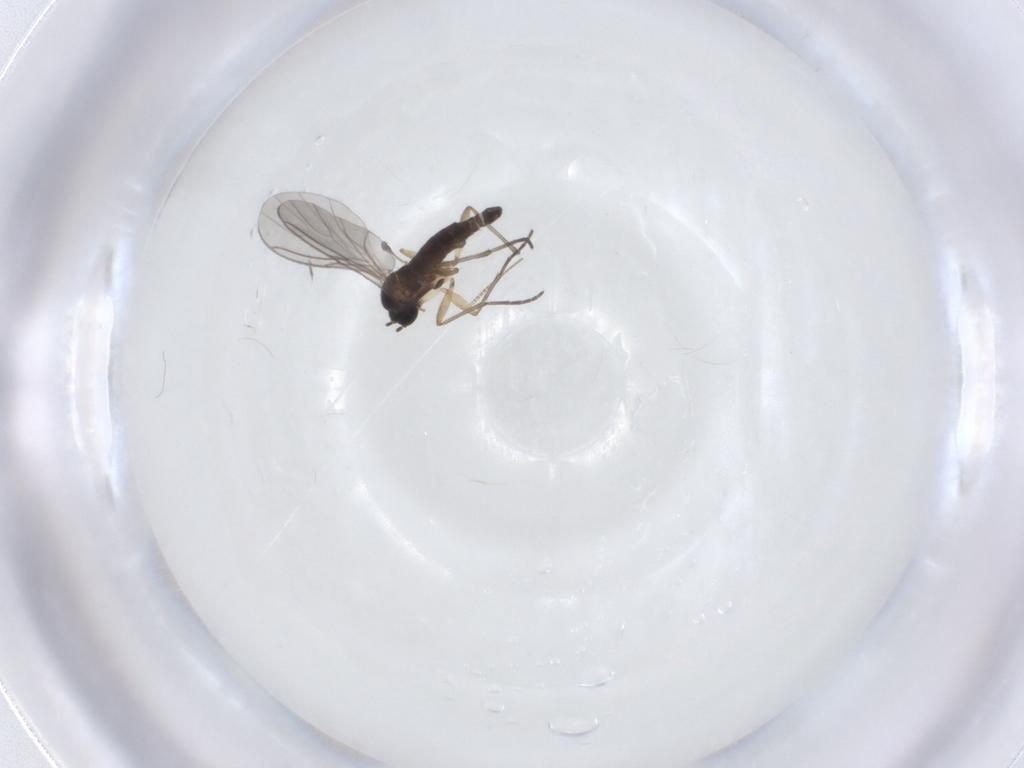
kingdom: Animalia
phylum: Arthropoda
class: Insecta
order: Diptera
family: Sciaridae
